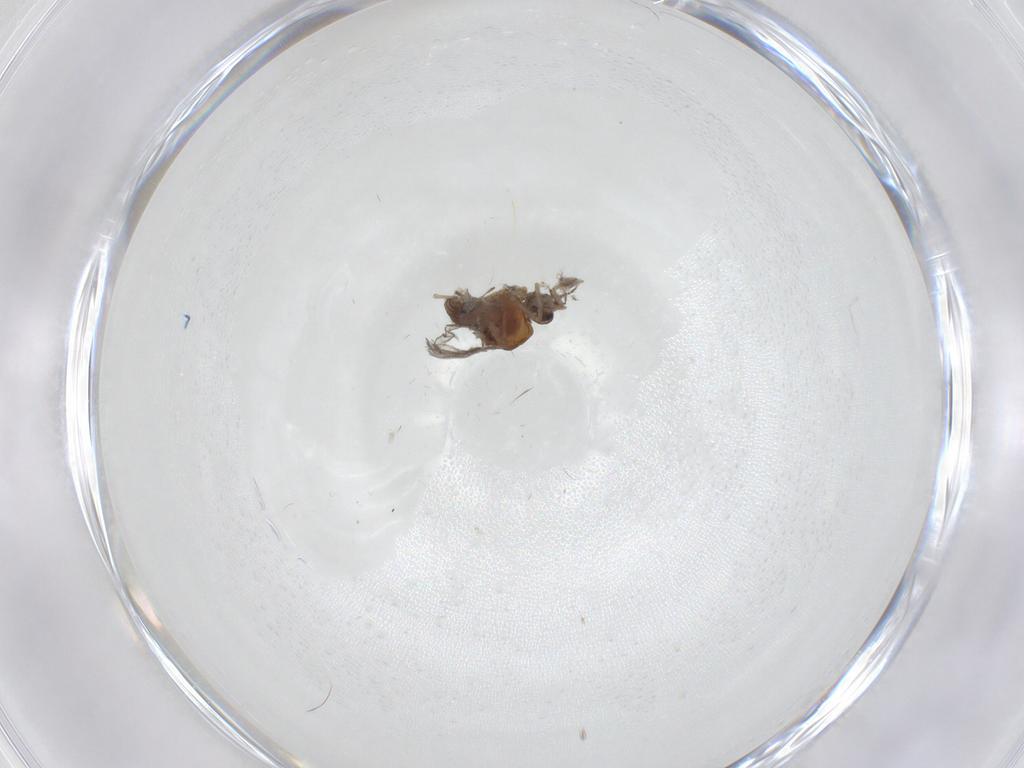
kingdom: Animalia
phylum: Arthropoda
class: Insecta
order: Diptera
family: Ceratopogonidae
